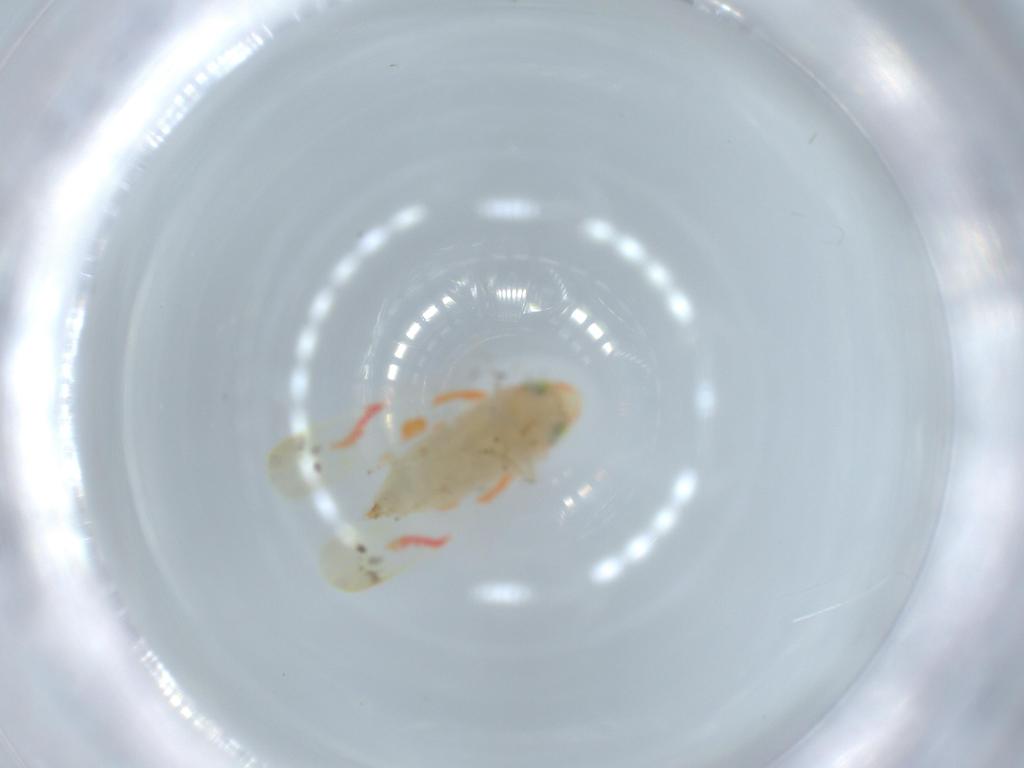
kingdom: Animalia
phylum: Arthropoda
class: Insecta
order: Hemiptera
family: Cicadellidae
